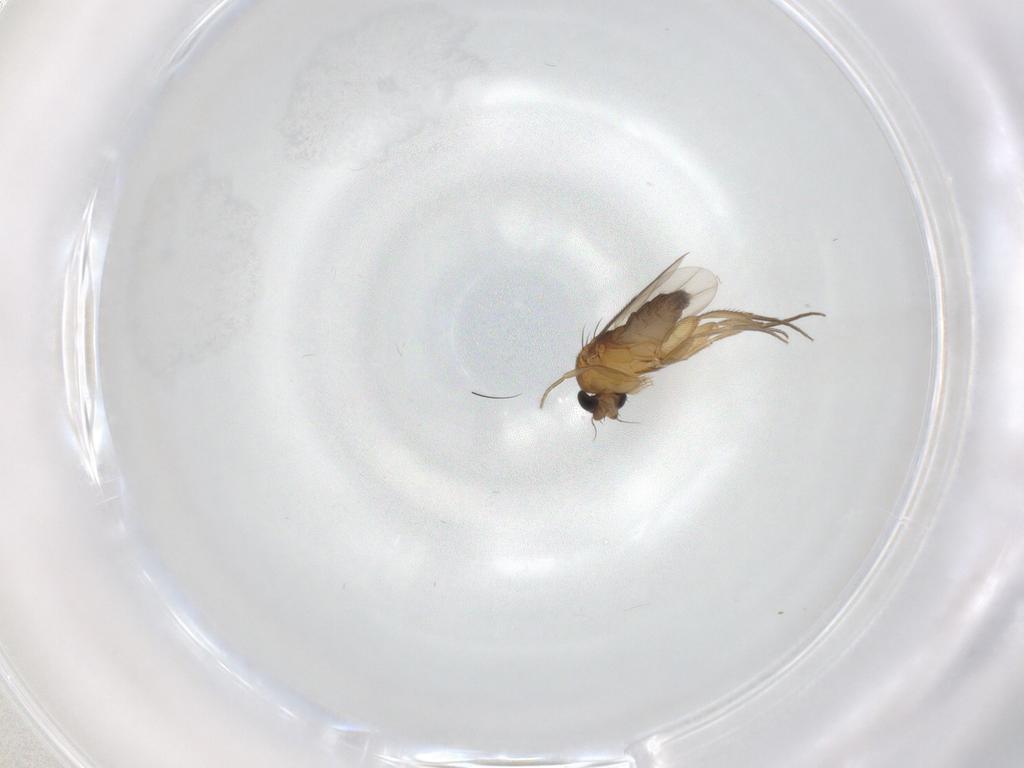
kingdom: Animalia
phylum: Arthropoda
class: Insecta
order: Diptera
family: Phoridae
